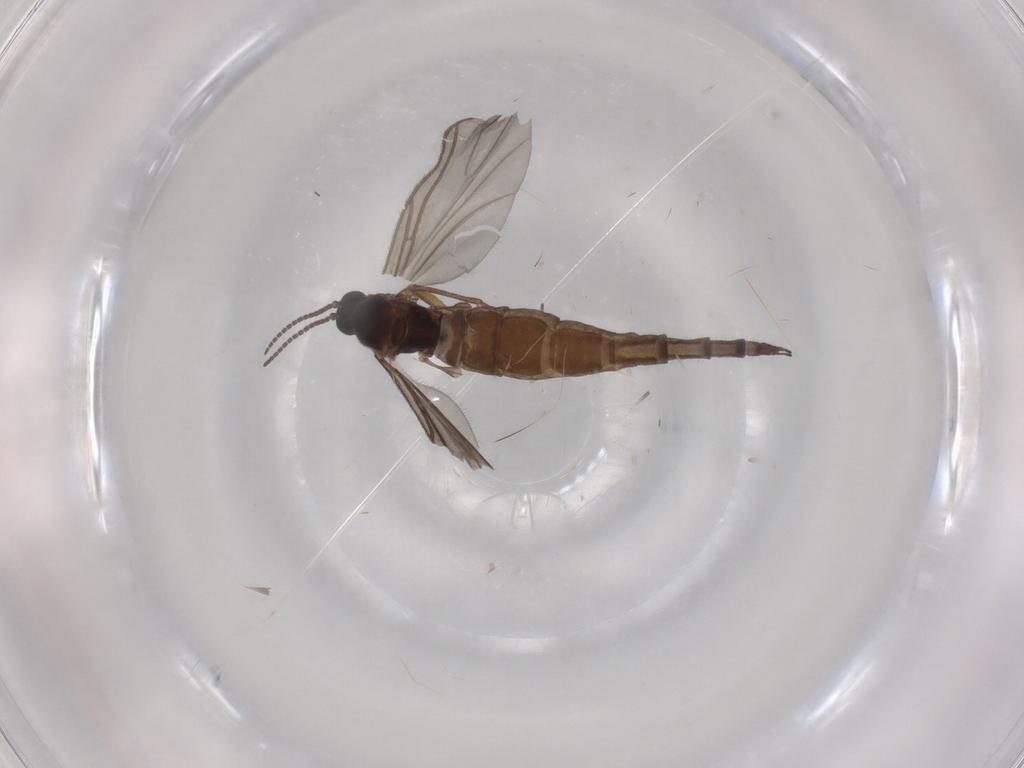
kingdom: Animalia
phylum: Arthropoda
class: Insecta
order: Diptera
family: Sciaridae
